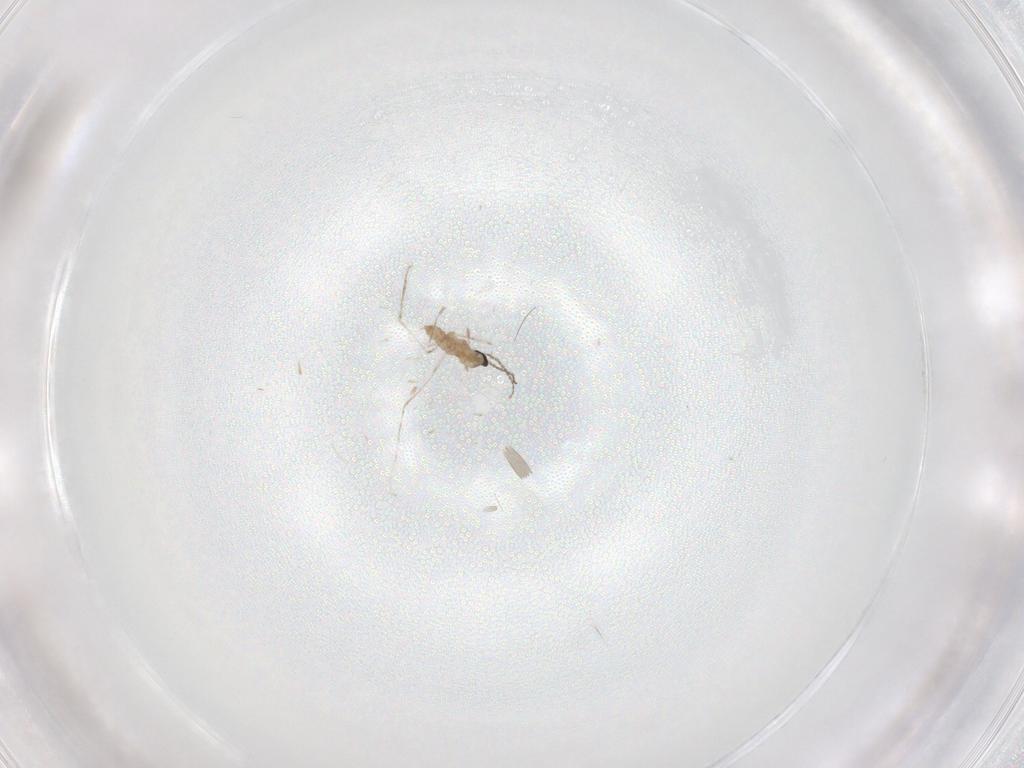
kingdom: Animalia
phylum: Arthropoda
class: Insecta
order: Diptera
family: Cecidomyiidae
